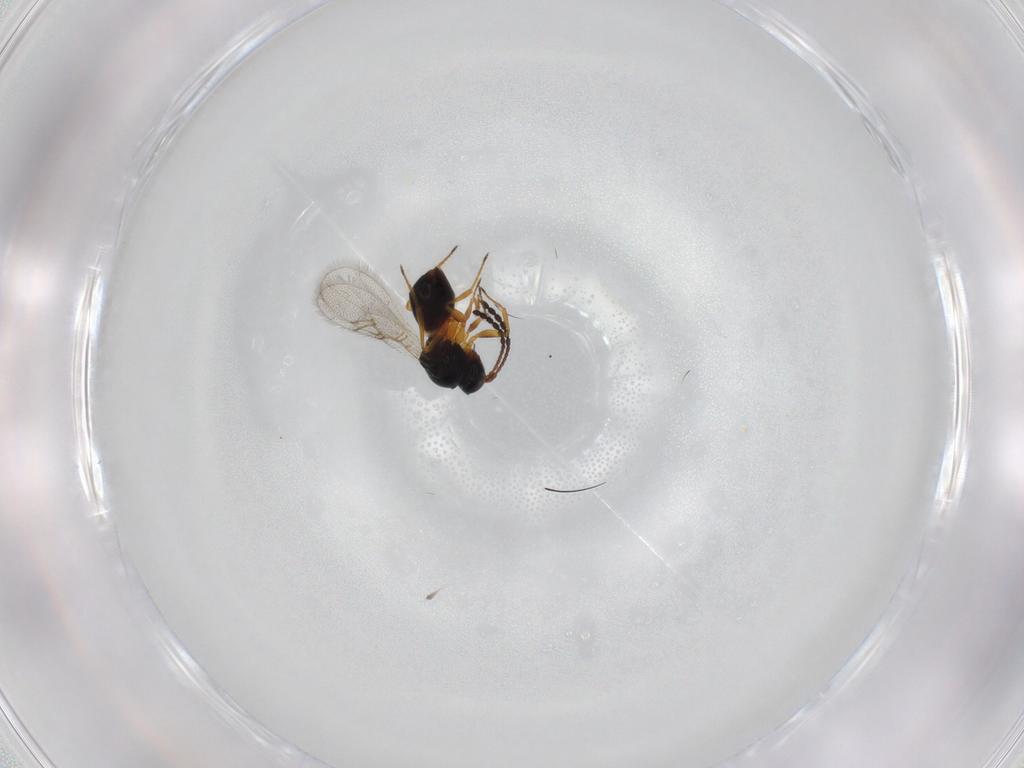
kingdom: Animalia
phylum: Arthropoda
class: Insecta
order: Hymenoptera
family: Figitidae
